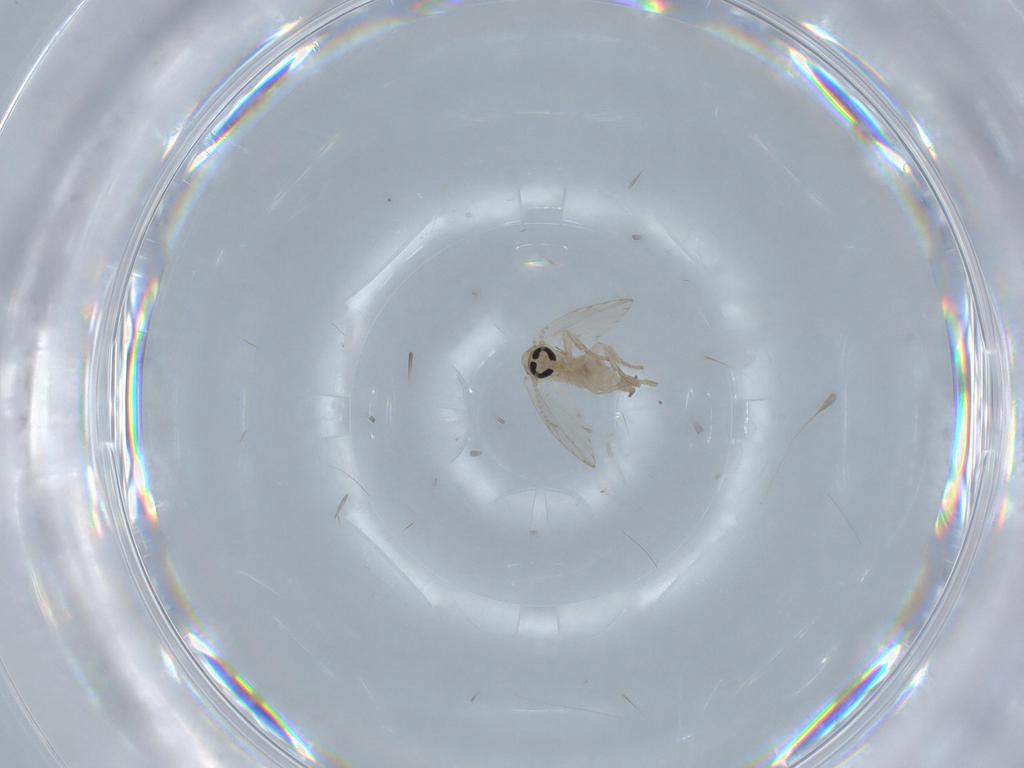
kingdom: Animalia
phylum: Arthropoda
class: Insecta
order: Diptera
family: Psychodidae
